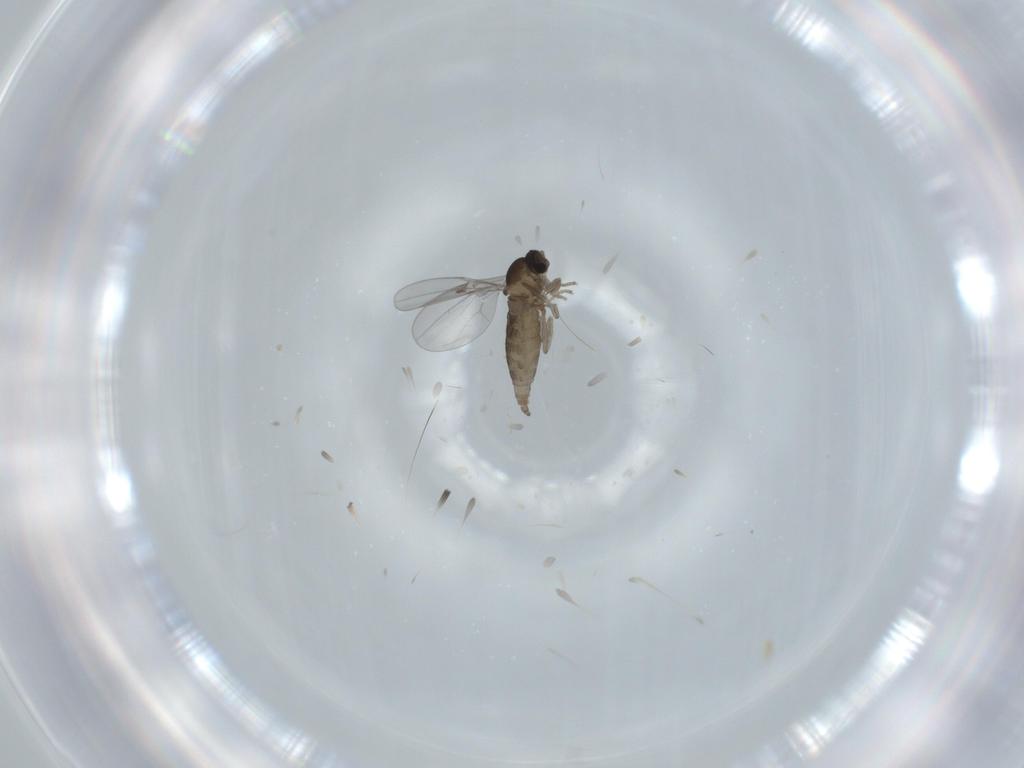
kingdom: Animalia
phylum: Arthropoda
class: Insecta
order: Diptera
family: Cecidomyiidae
